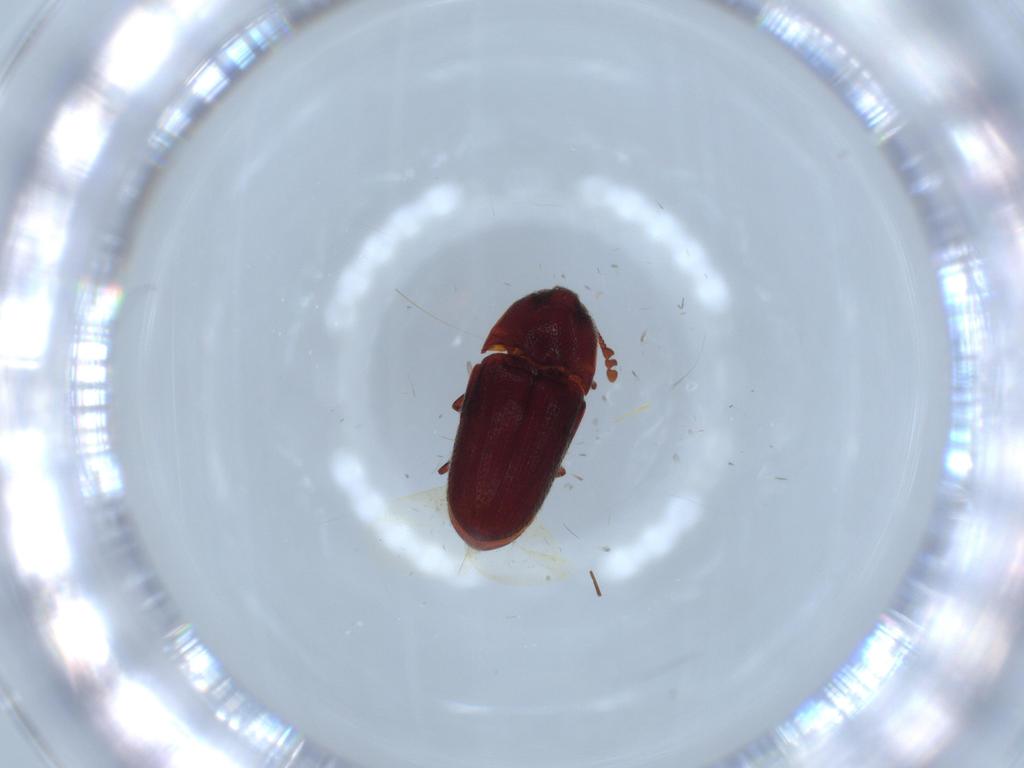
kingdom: Animalia
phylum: Arthropoda
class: Insecta
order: Coleoptera
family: Throscidae
